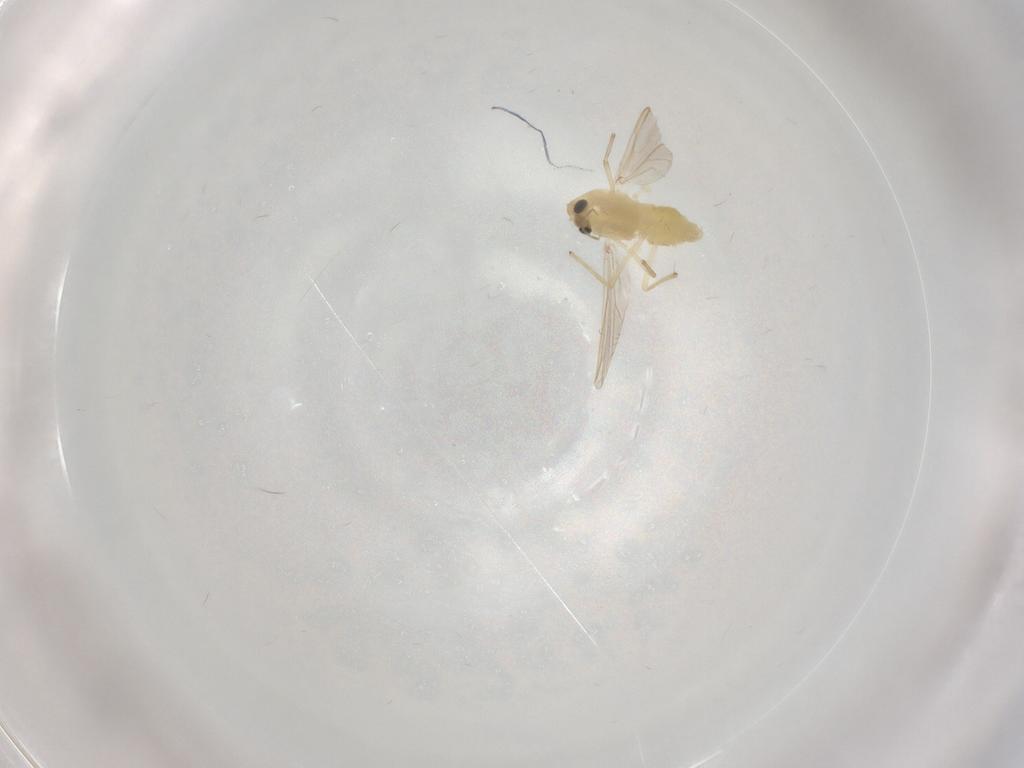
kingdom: Animalia
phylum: Arthropoda
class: Insecta
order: Diptera
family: Chironomidae
